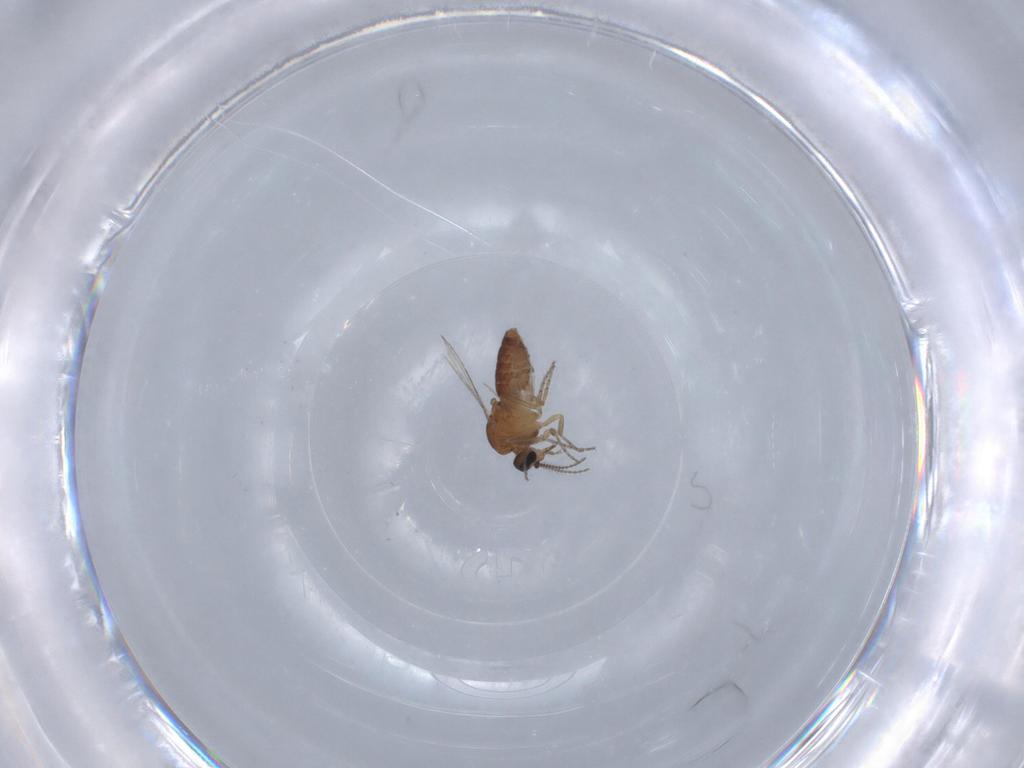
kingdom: Animalia
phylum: Arthropoda
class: Insecta
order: Diptera
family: Ceratopogonidae
